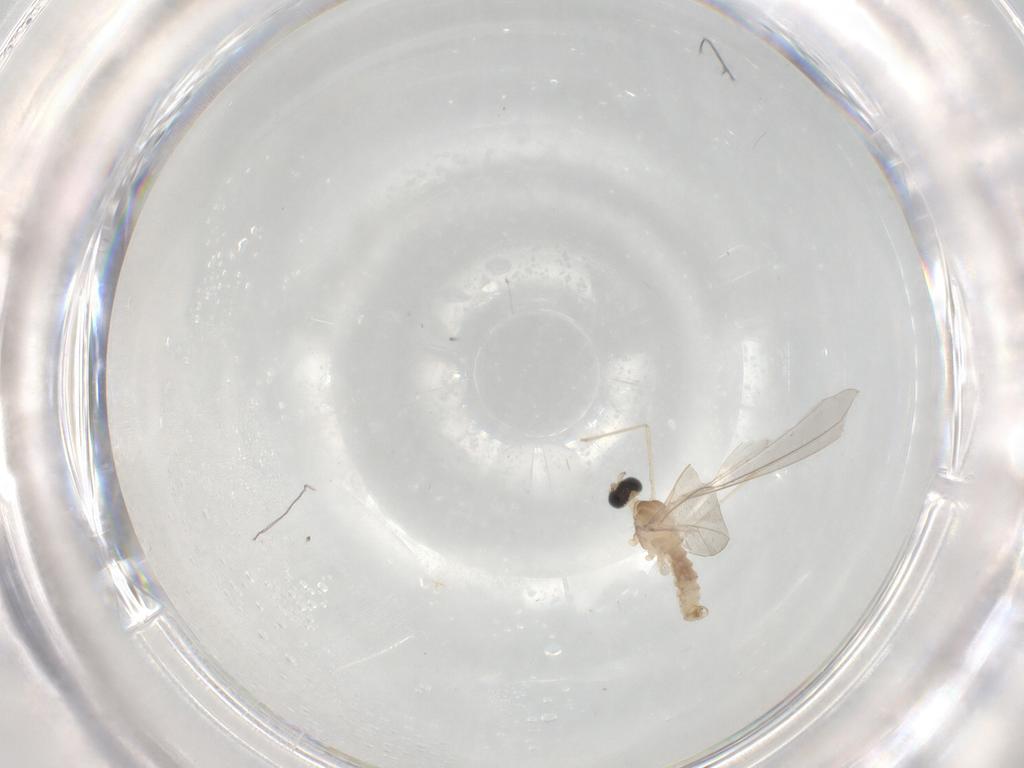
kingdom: Animalia
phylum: Arthropoda
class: Insecta
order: Diptera
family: Cecidomyiidae
